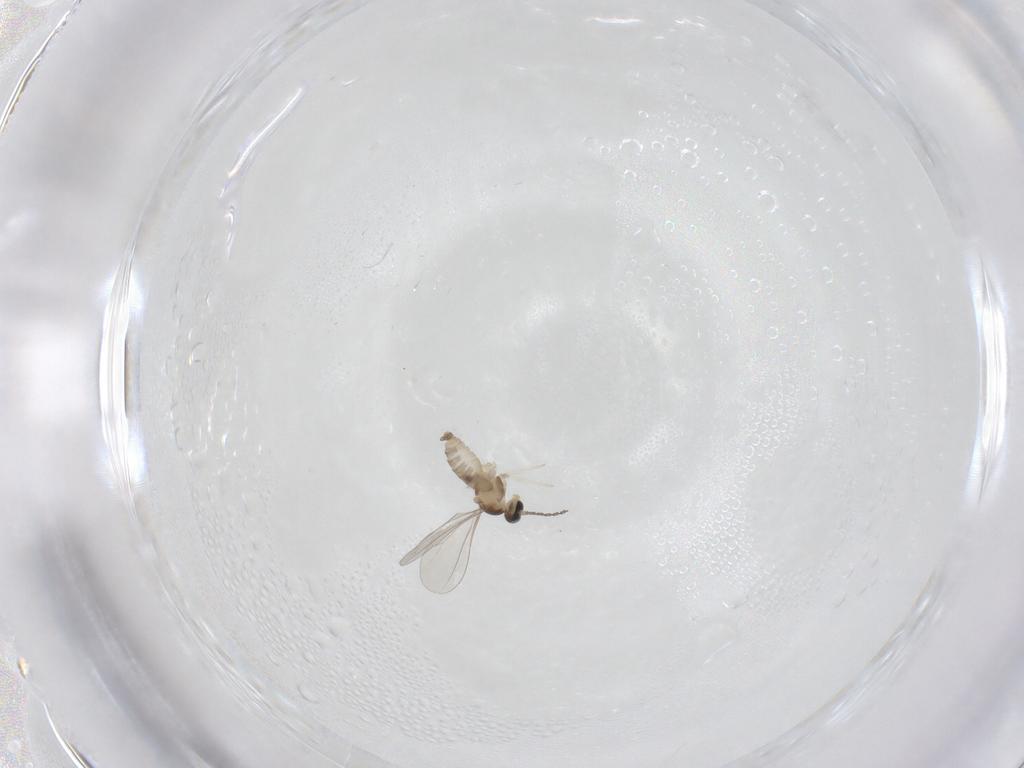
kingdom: Animalia
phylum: Arthropoda
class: Insecta
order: Diptera
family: Cecidomyiidae
